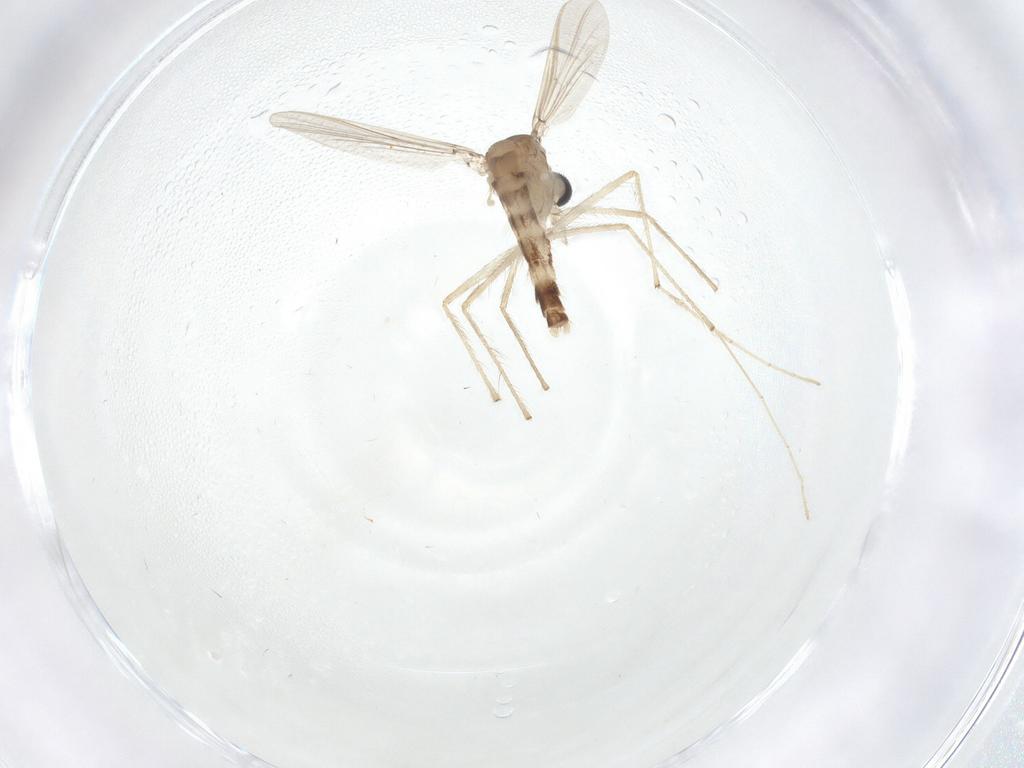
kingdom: Animalia
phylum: Arthropoda
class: Insecta
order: Diptera
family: Chironomidae
